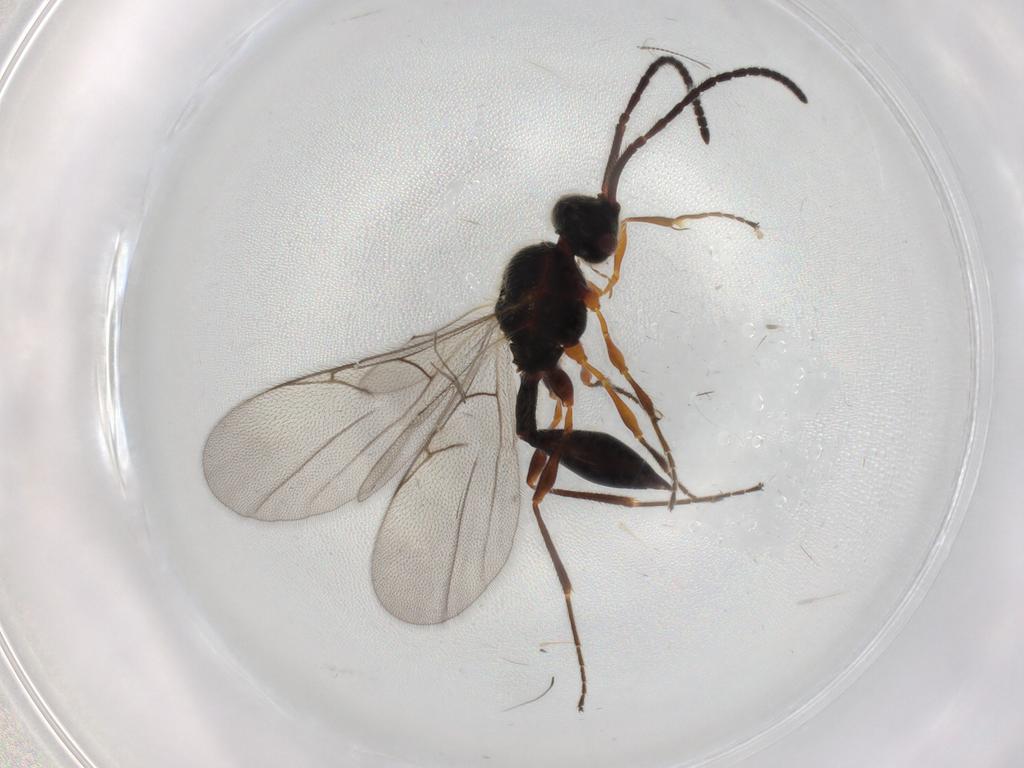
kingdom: Animalia
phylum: Arthropoda
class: Insecta
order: Hymenoptera
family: Diapriidae
